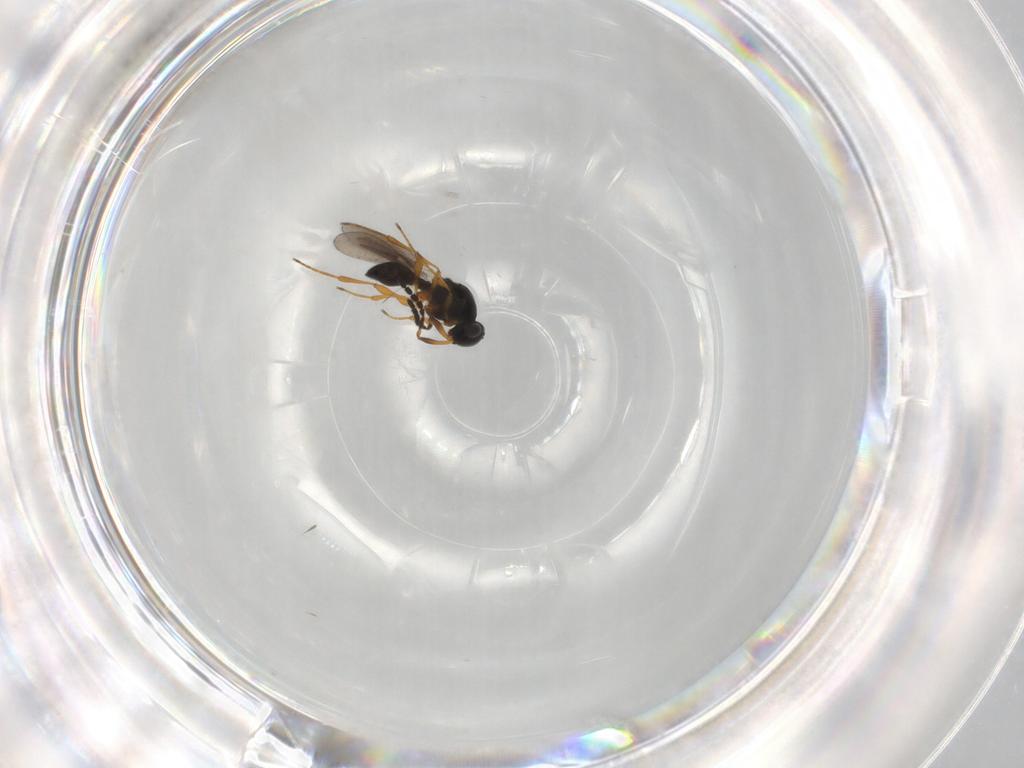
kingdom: Animalia
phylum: Arthropoda
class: Insecta
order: Hymenoptera
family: Platygastridae
